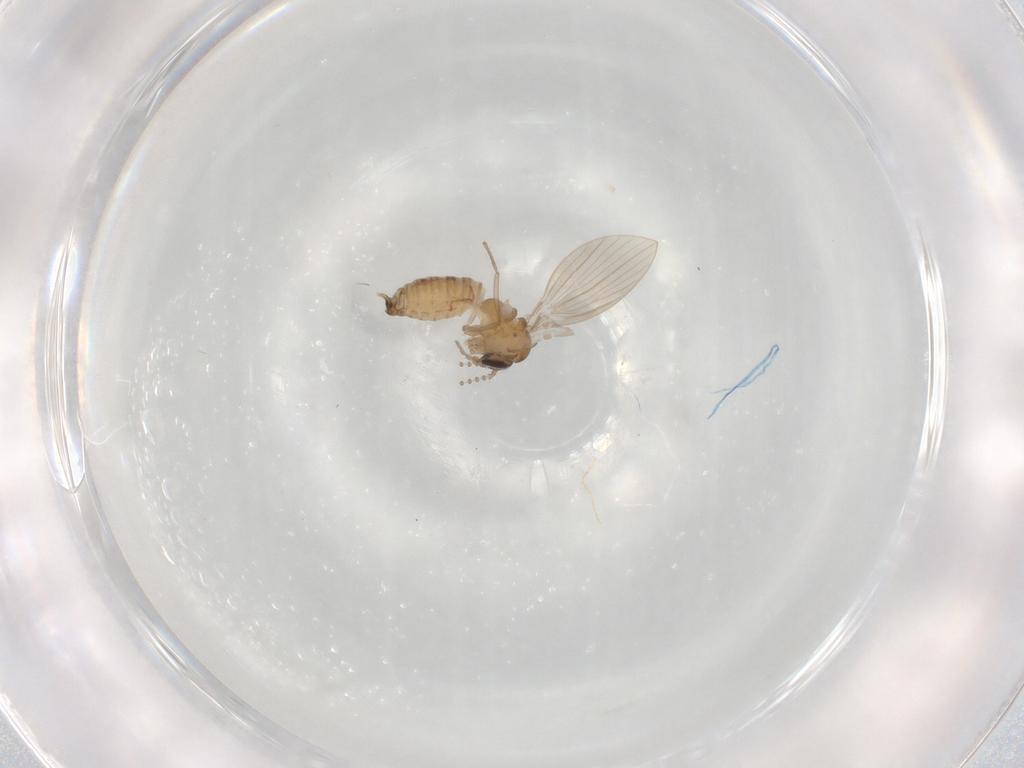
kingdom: Animalia
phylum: Arthropoda
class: Insecta
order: Diptera
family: Psychodidae
